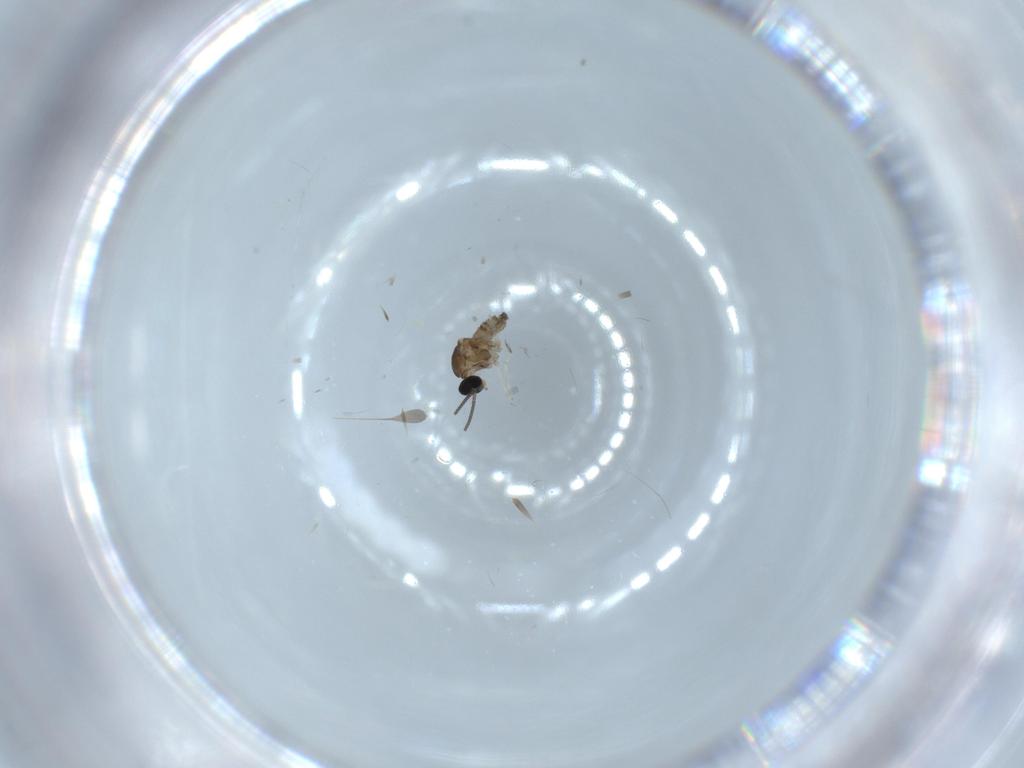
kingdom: Animalia
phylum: Arthropoda
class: Insecta
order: Diptera
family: Cecidomyiidae
